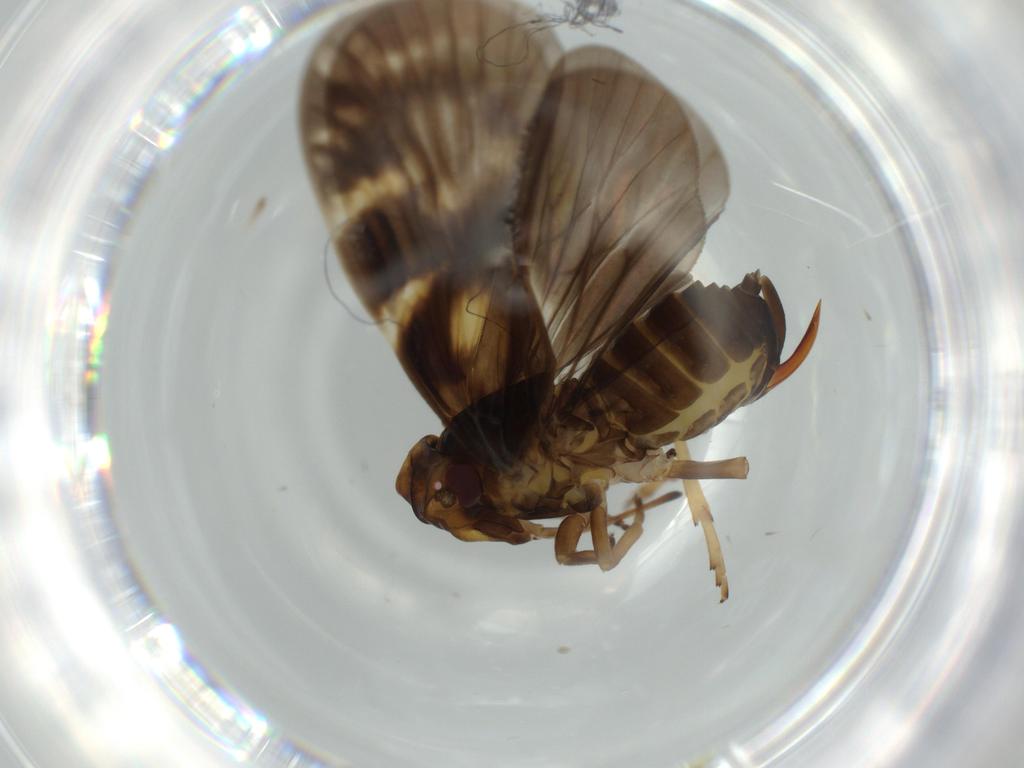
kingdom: Animalia
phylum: Arthropoda
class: Insecta
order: Hemiptera
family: Cixiidae
